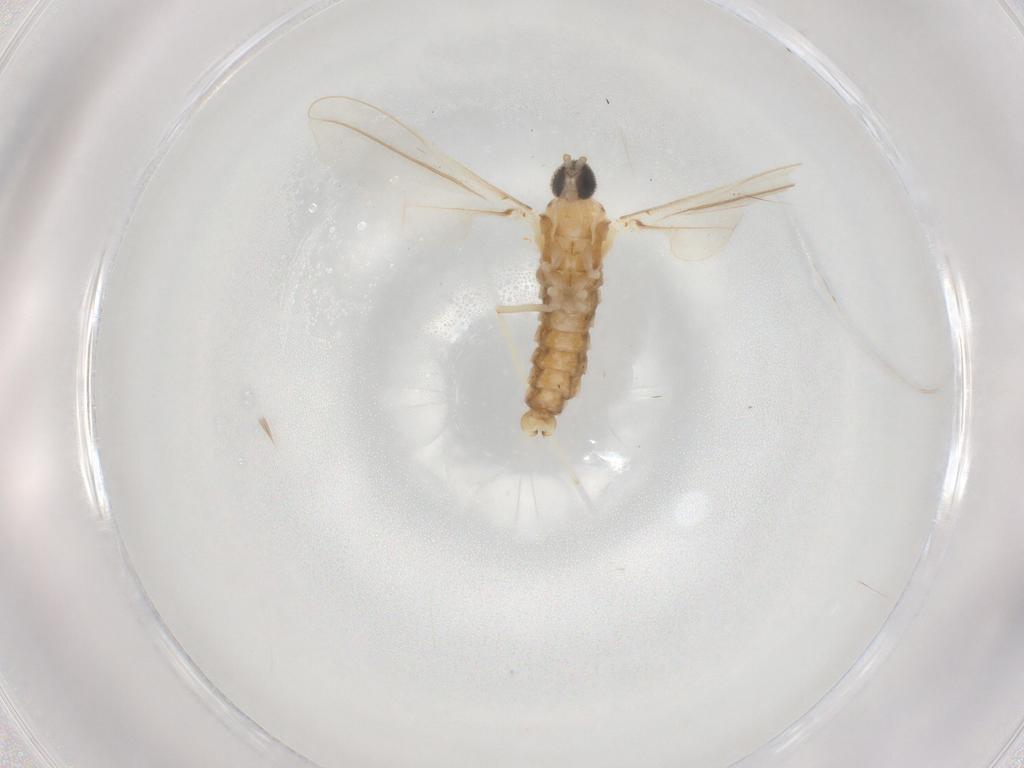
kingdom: Animalia
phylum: Arthropoda
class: Insecta
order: Diptera
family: Cecidomyiidae
